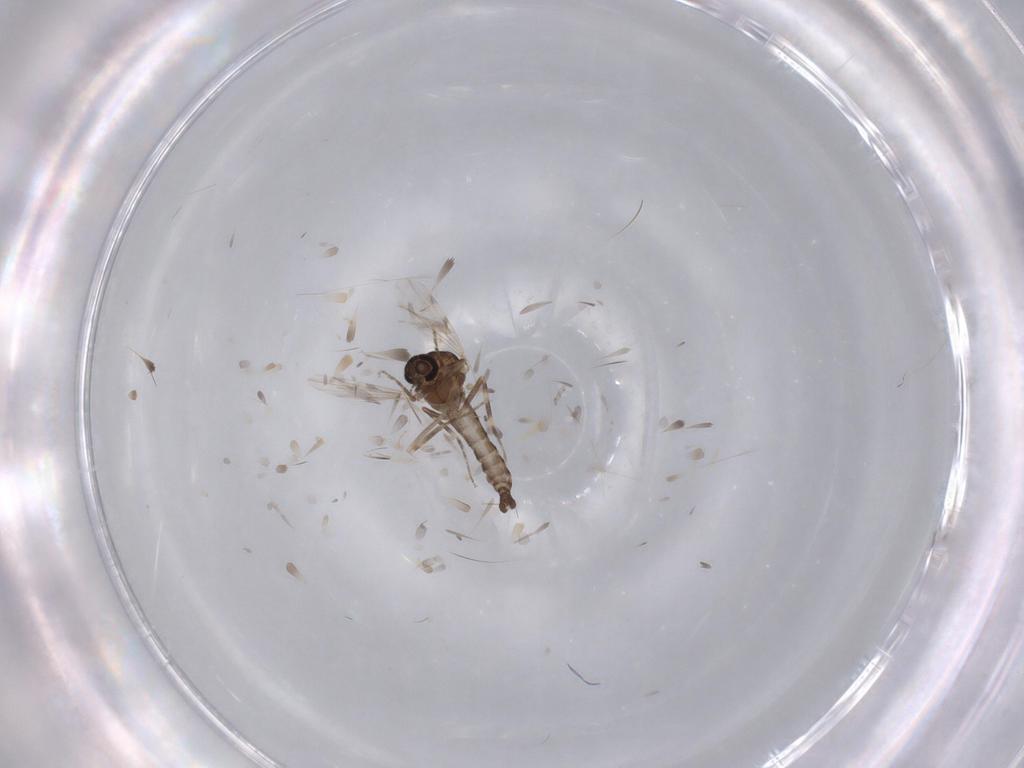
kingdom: Animalia
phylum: Arthropoda
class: Insecta
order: Diptera
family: Ceratopogonidae
